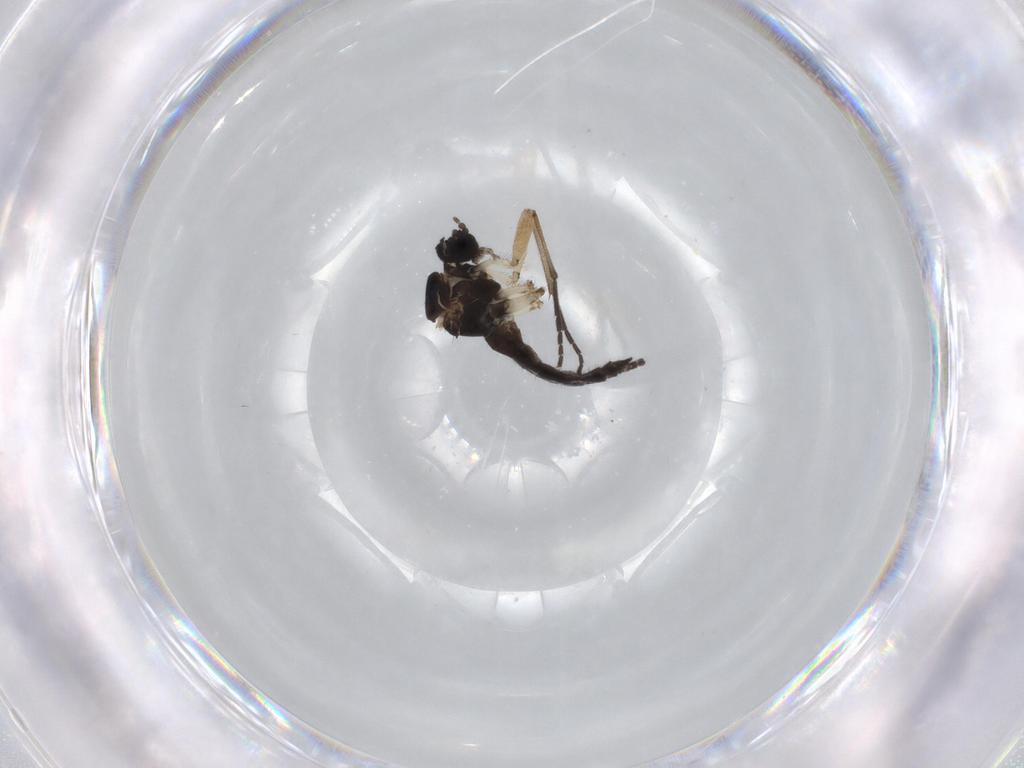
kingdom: Animalia
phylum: Arthropoda
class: Insecta
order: Diptera
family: Sciaridae
